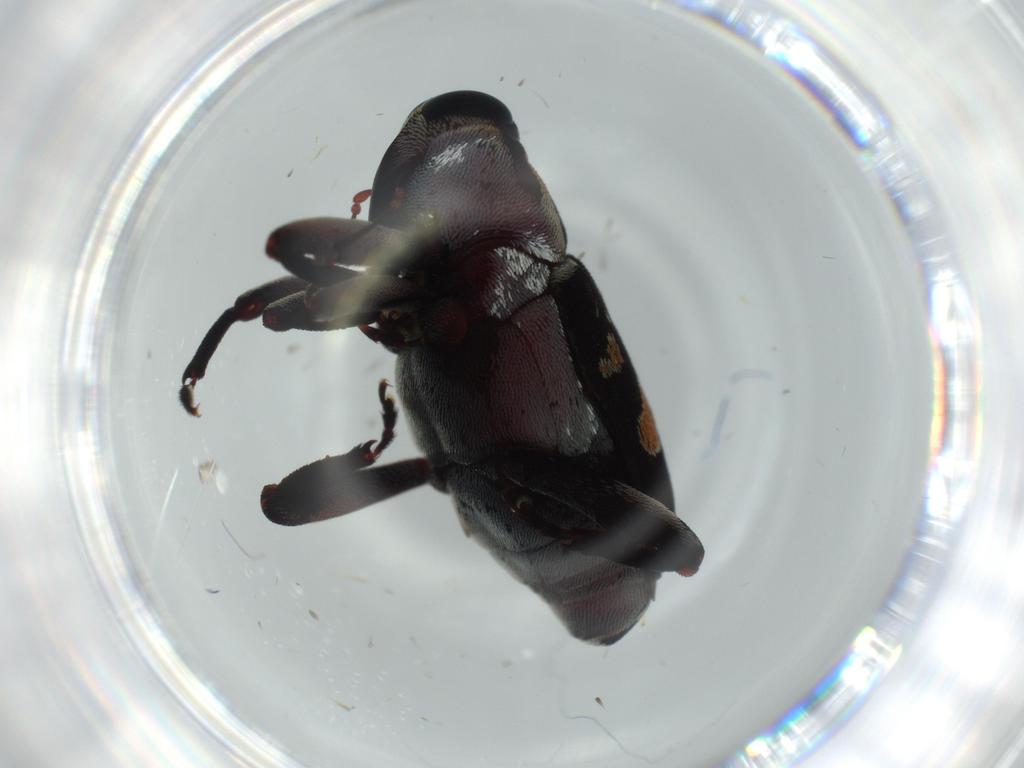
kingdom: Animalia
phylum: Arthropoda
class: Insecta
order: Coleoptera
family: Curculionidae
